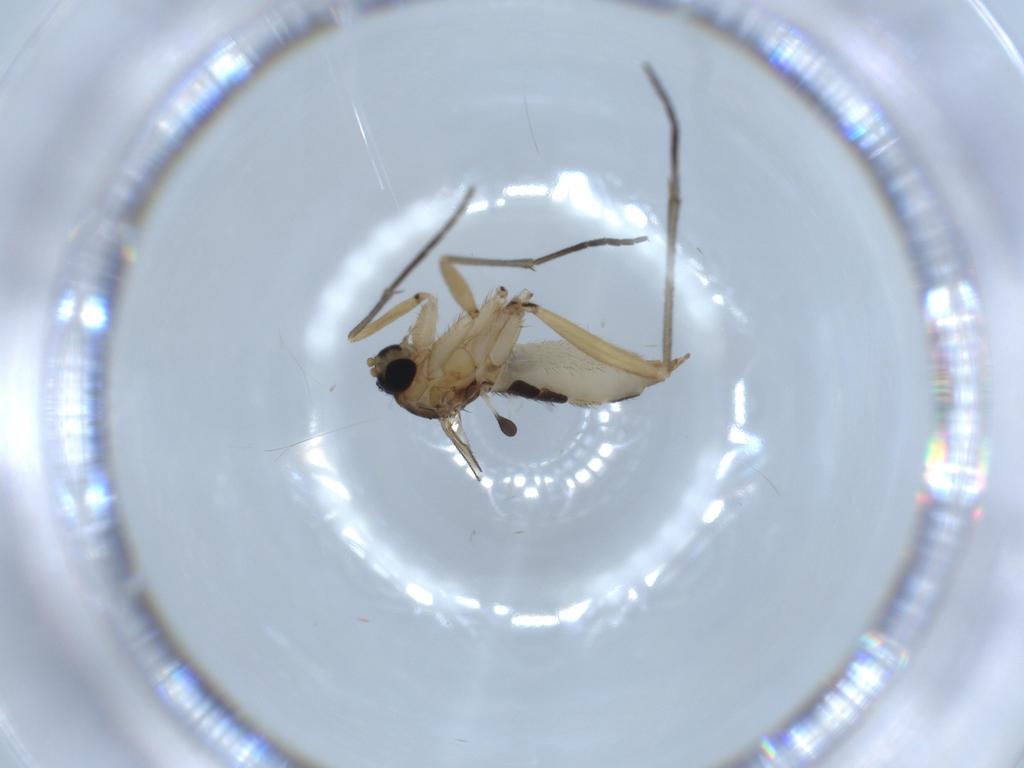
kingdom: Animalia
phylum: Arthropoda
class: Insecta
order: Diptera
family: Sciaridae
